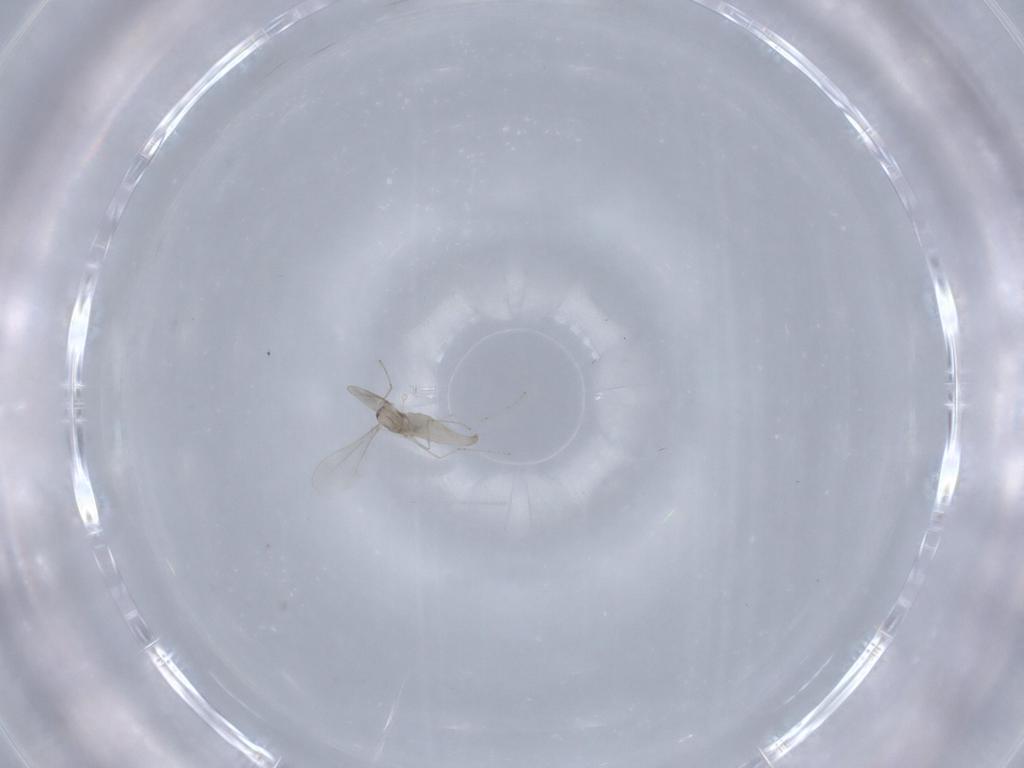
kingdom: Animalia
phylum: Arthropoda
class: Insecta
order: Diptera
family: Cecidomyiidae
